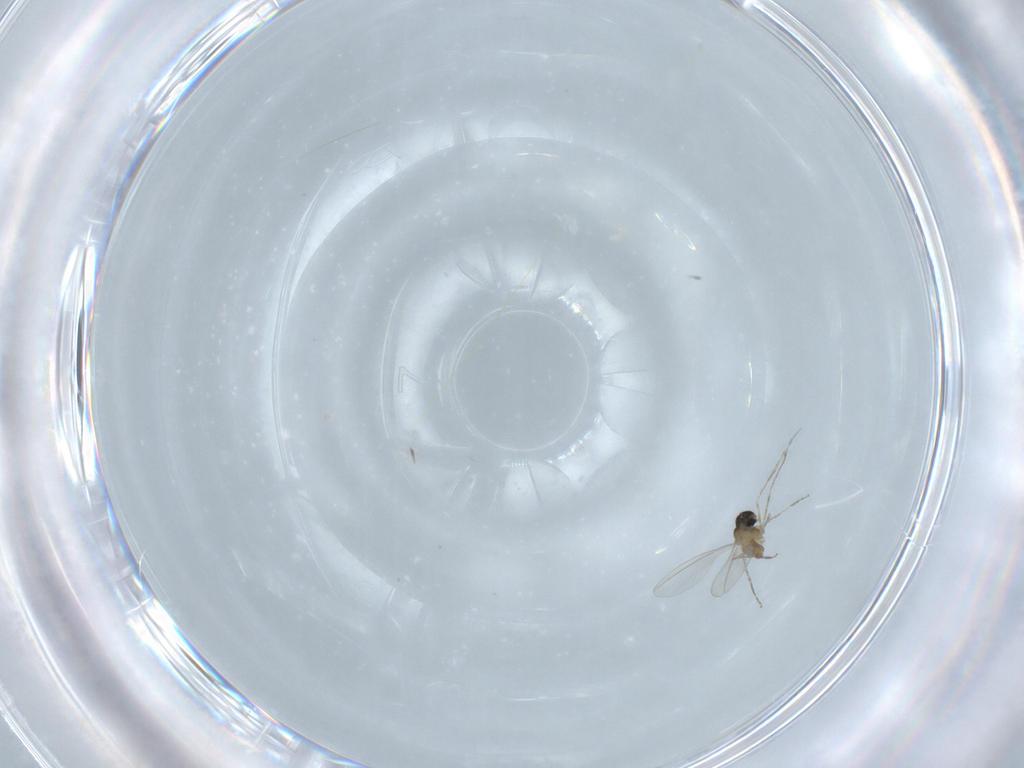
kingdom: Animalia
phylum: Arthropoda
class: Insecta
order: Diptera
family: Cecidomyiidae
